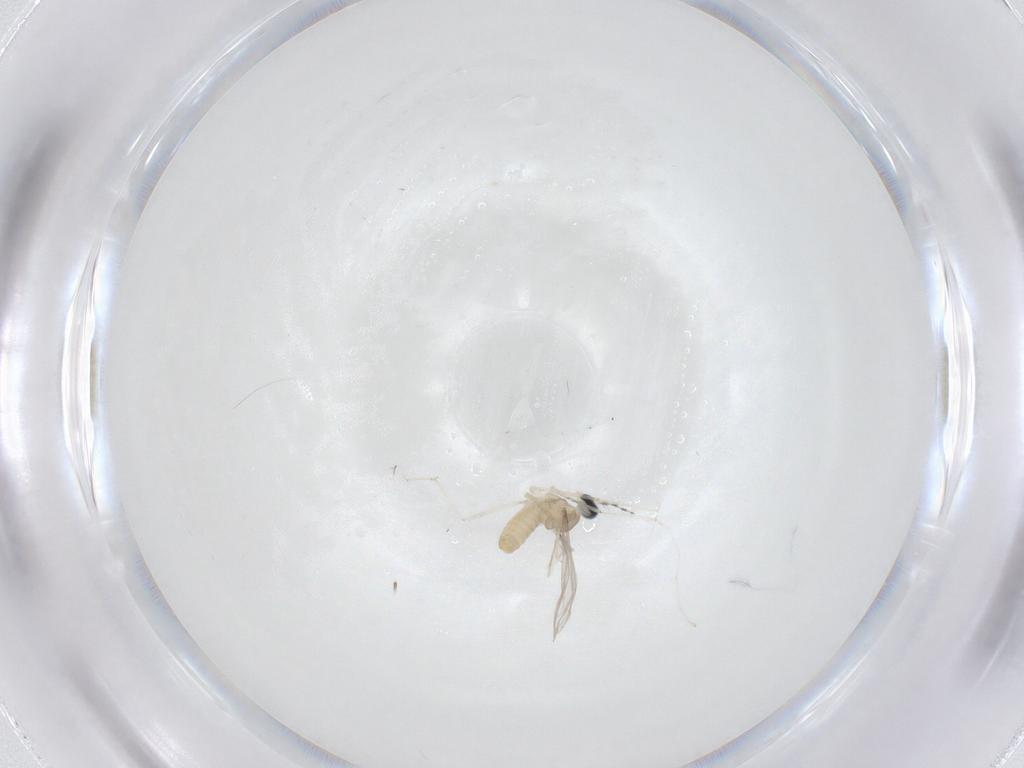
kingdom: Animalia
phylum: Arthropoda
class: Insecta
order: Diptera
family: Cecidomyiidae
